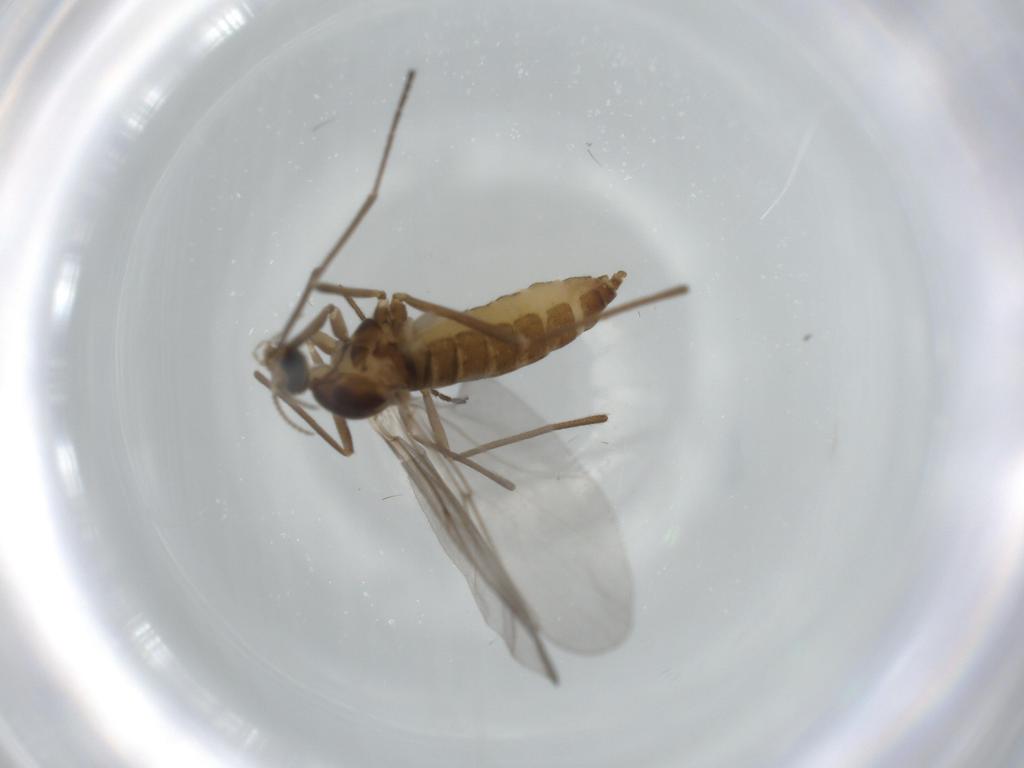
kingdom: Animalia
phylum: Arthropoda
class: Insecta
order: Diptera
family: Cecidomyiidae
